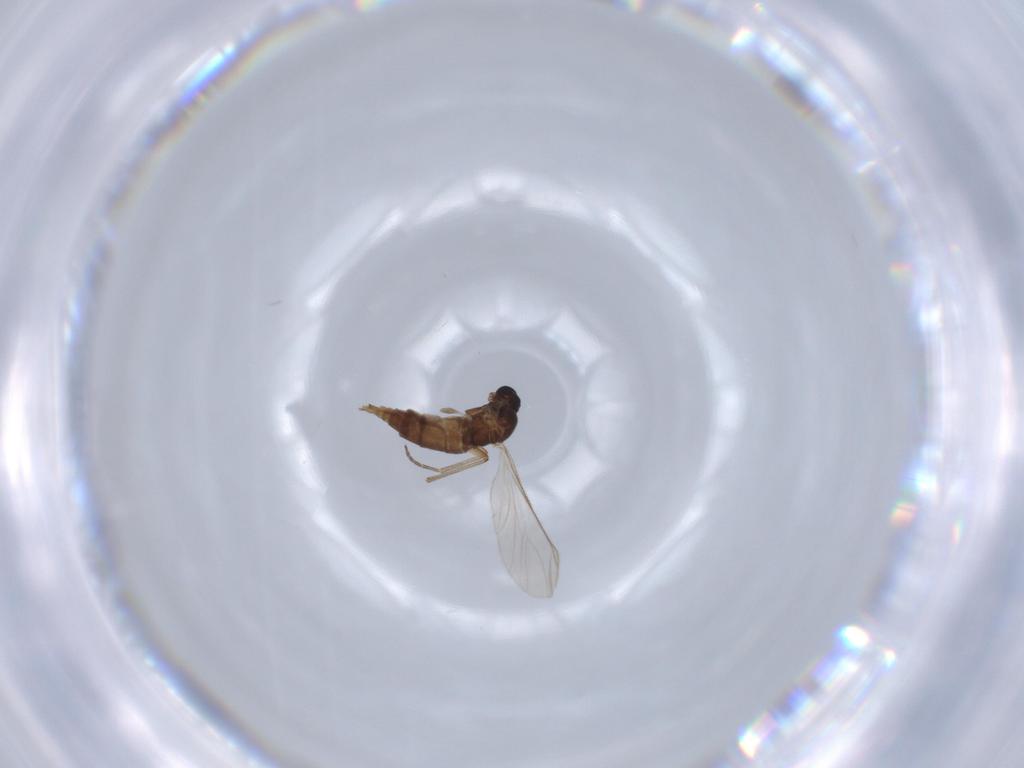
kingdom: Animalia
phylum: Arthropoda
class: Insecta
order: Diptera
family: Sciaridae
